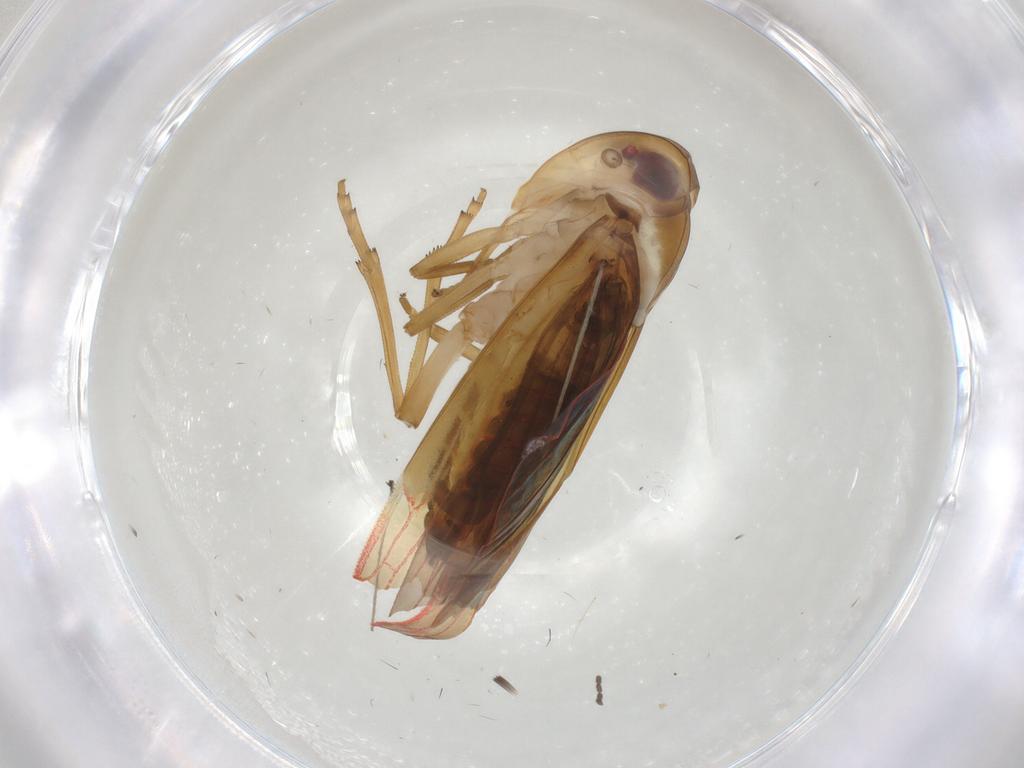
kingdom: Animalia
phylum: Arthropoda
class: Insecta
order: Hemiptera
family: Achilidae
